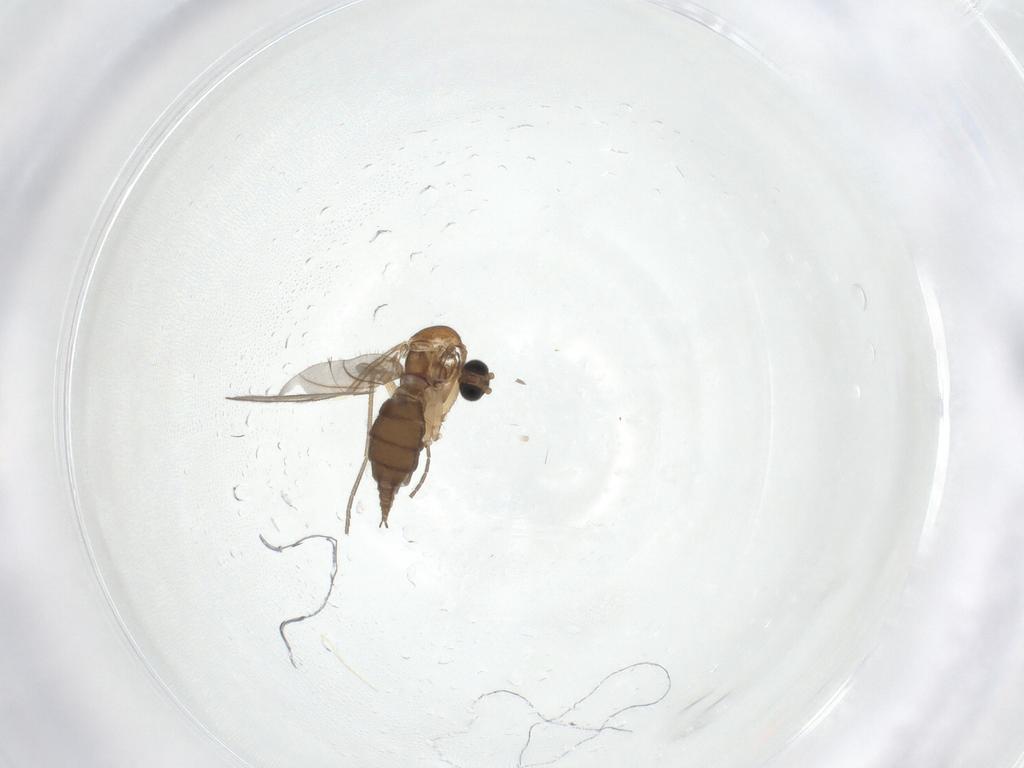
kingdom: Animalia
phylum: Arthropoda
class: Insecta
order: Diptera
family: Sciaridae
